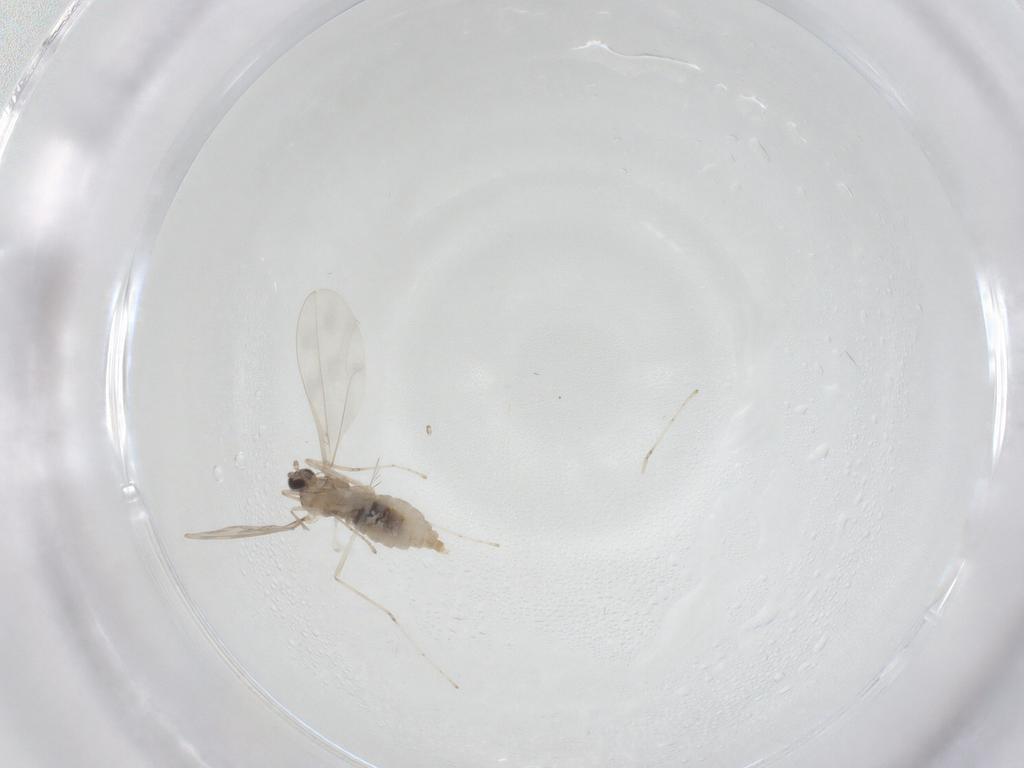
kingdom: Animalia
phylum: Arthropoda
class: Insecta
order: Diptera
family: Cecidomyiidae
